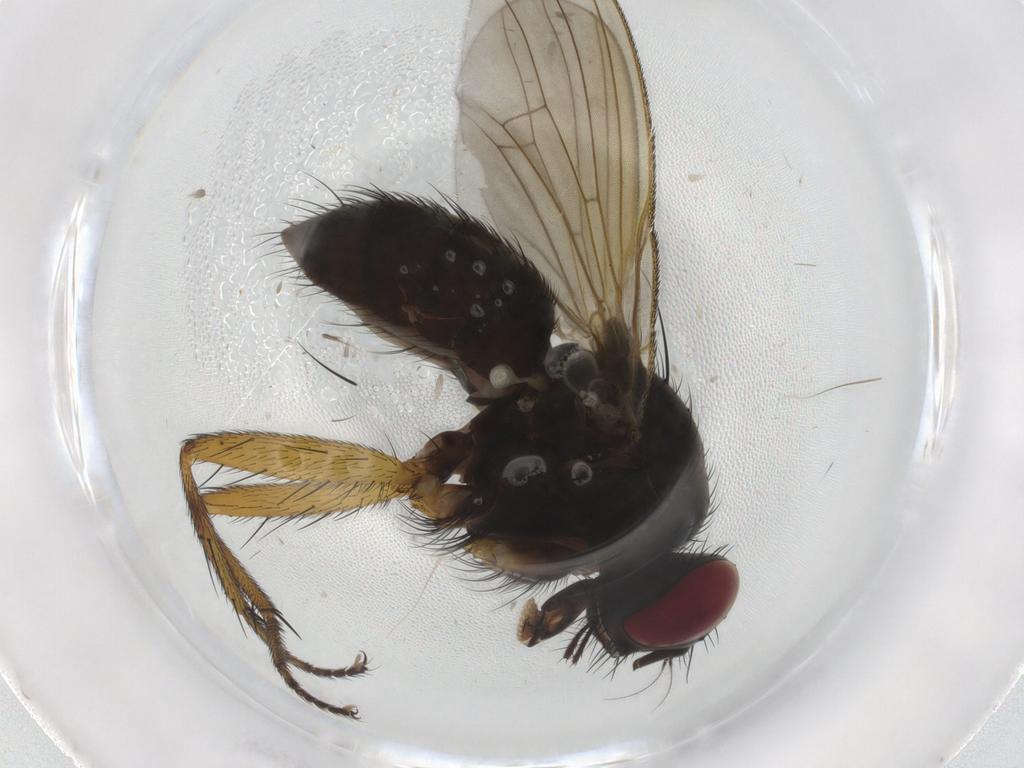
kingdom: Animalia
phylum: Arthropoda
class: Insecta
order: Diptera
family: Muscidae
